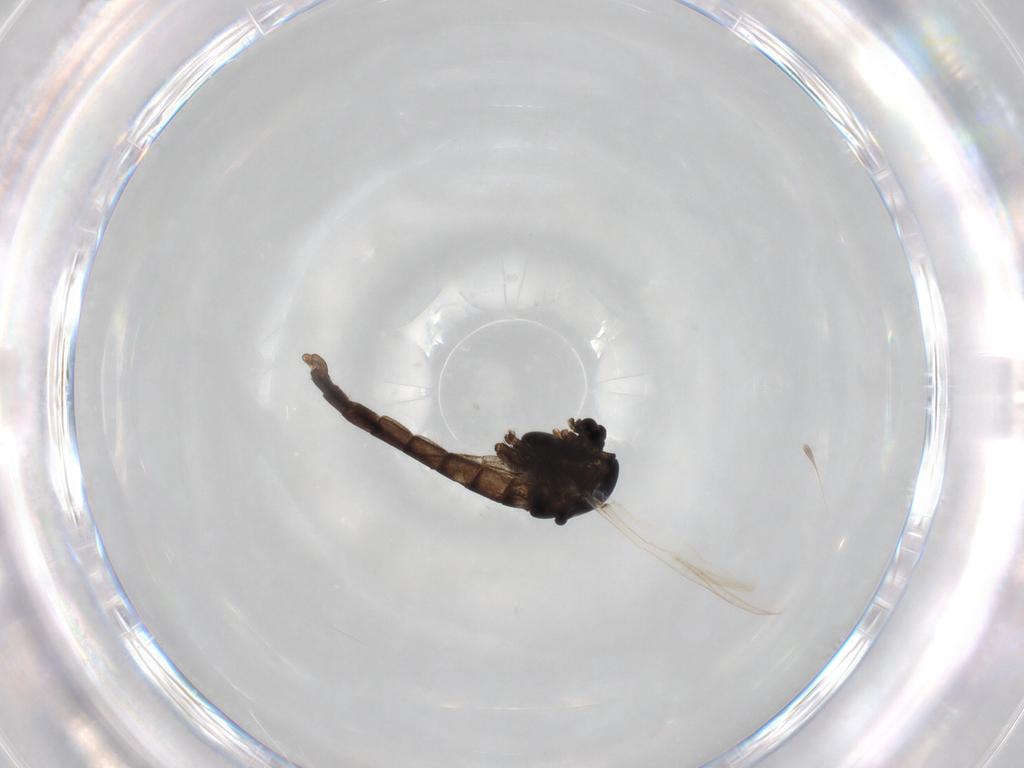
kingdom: Animalia
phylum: Arthropoda
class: Insecta
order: Diptera
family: Chironomidae
